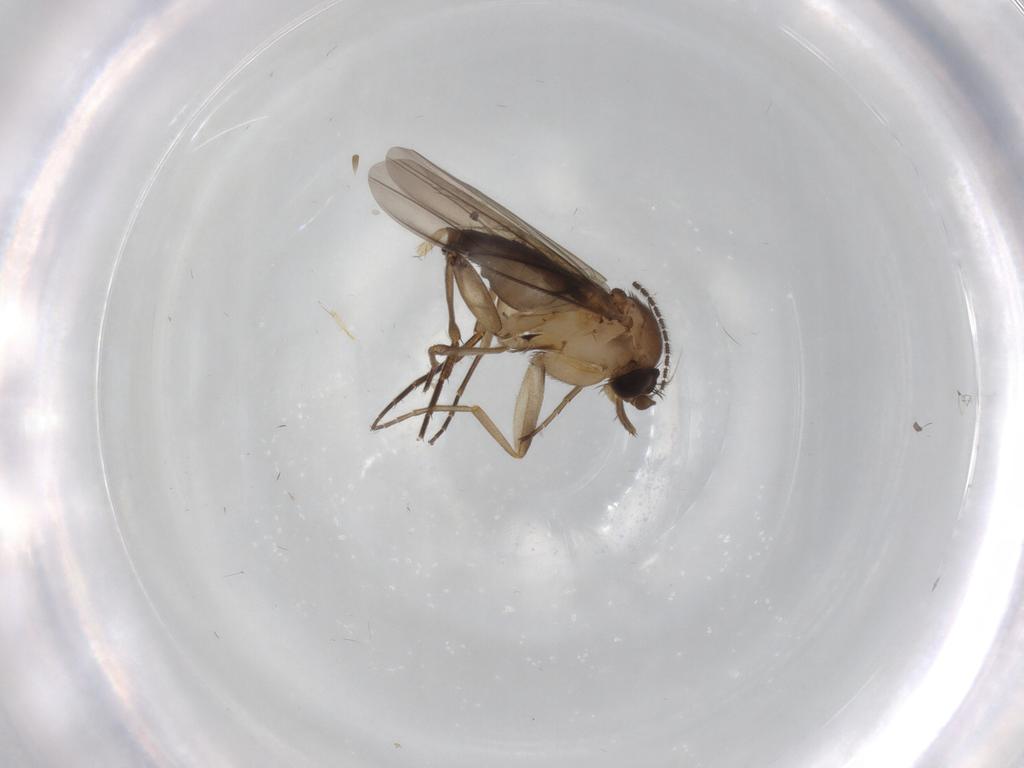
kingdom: Animalia
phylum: Arthropoda
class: Insecta
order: Diptera
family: Phoridae
